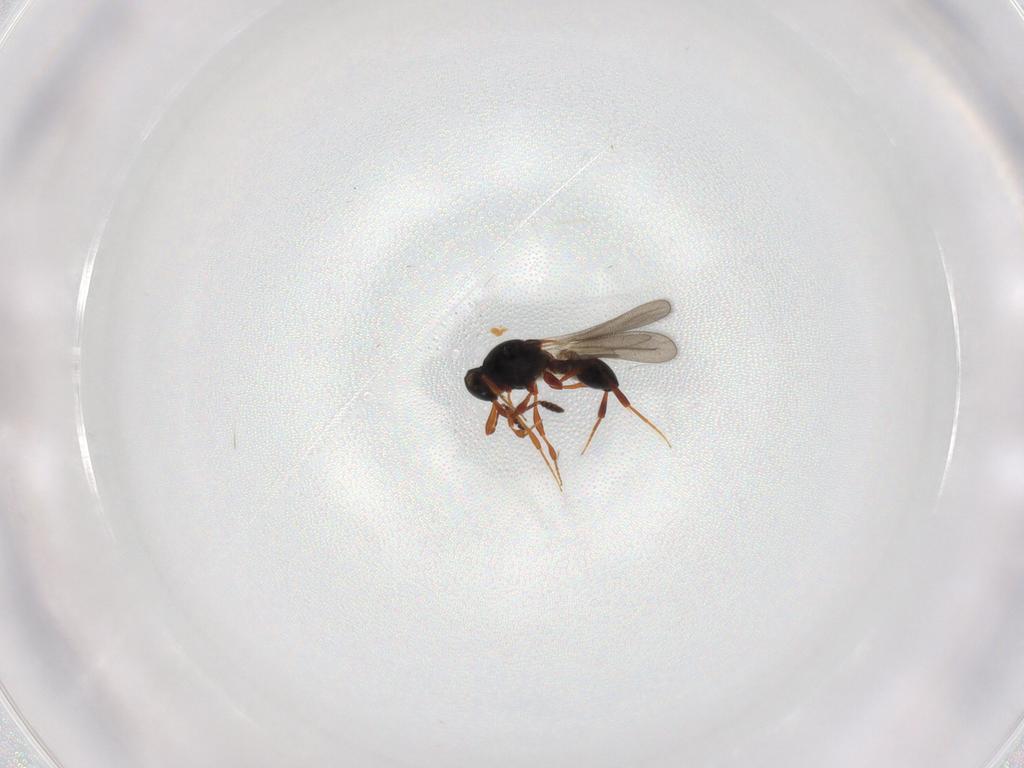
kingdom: Animalia
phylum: Arthropoda
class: Insecta
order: Hymenoptera
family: Platygastridae
